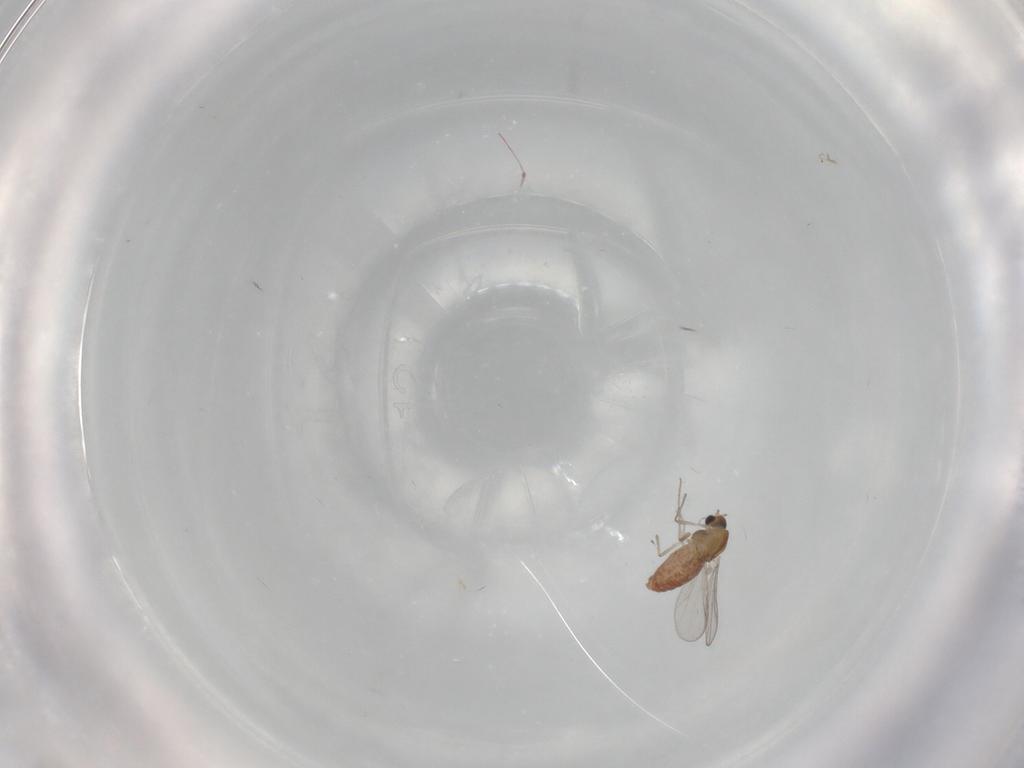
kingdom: Animalia
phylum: Arthropoda
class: Insecta
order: Diptera
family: Chironomidae
